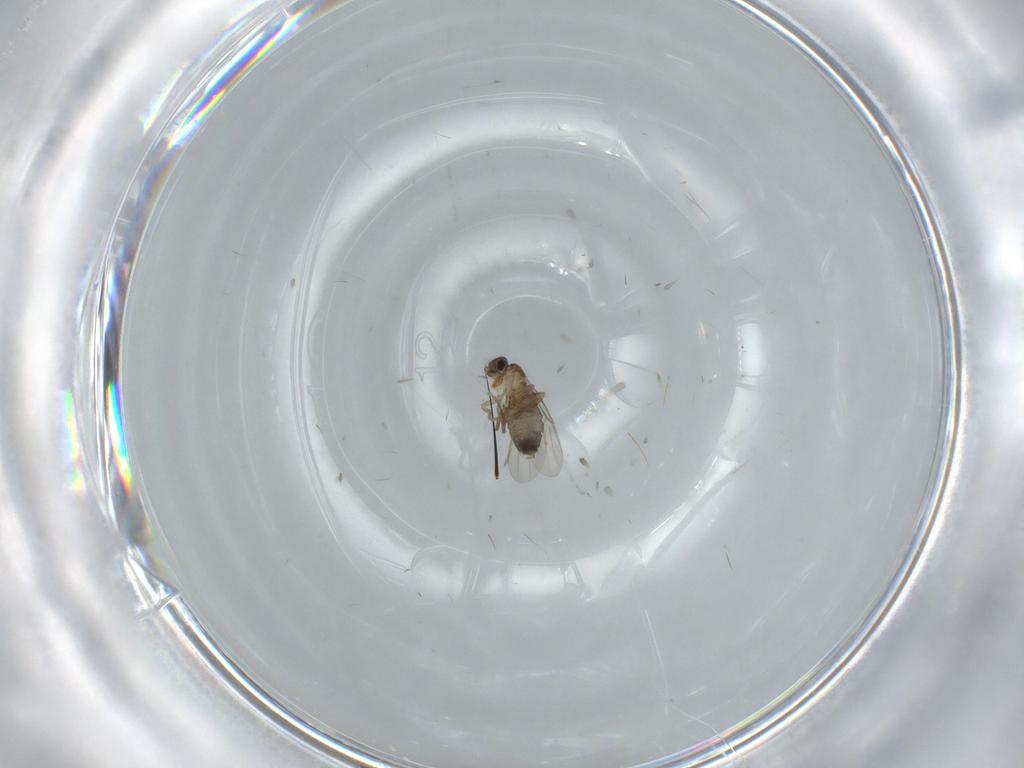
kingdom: Animalia
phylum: Arthropoda
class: Insecta
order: Diptera
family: Phoridae
